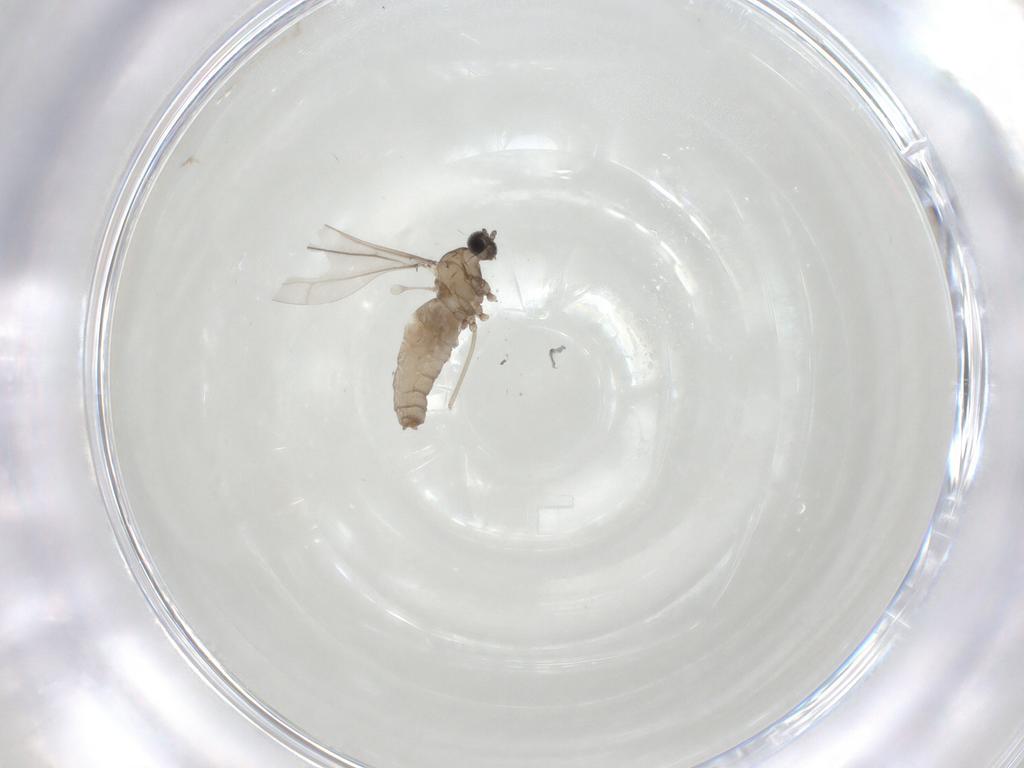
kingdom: Animalia
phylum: Arthropoda
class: Insecta
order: Diptera
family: Cecidomyiidae
